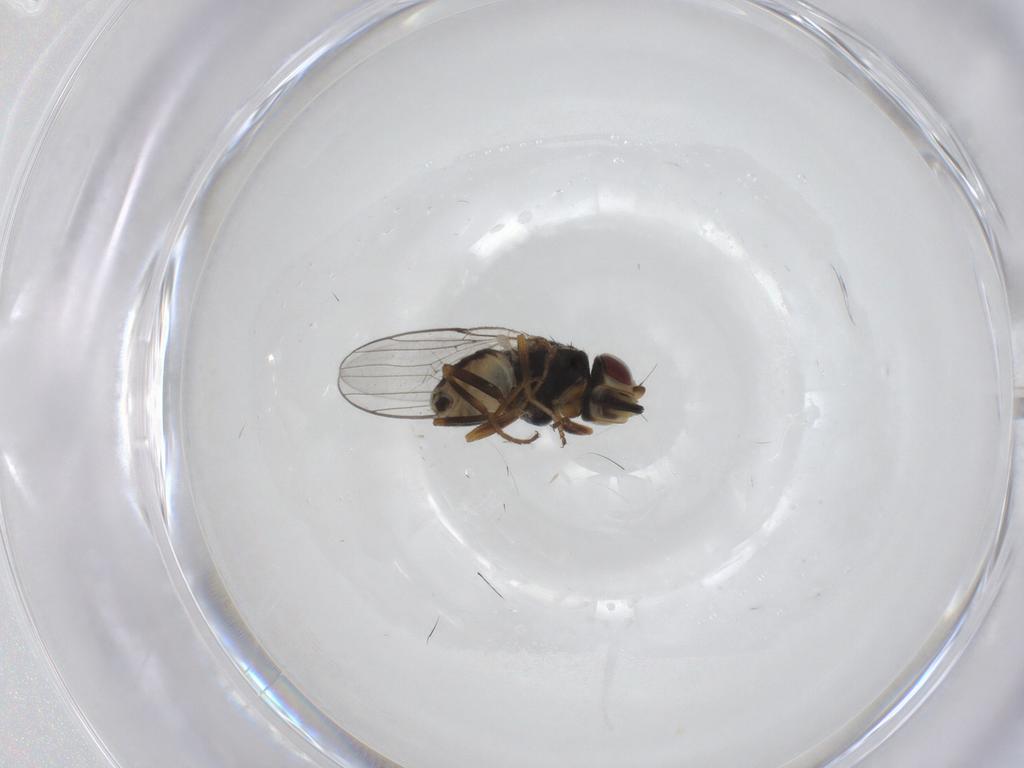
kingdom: Animalia
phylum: Arthropoda
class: Insecta
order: Diptera
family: Chloropidae
